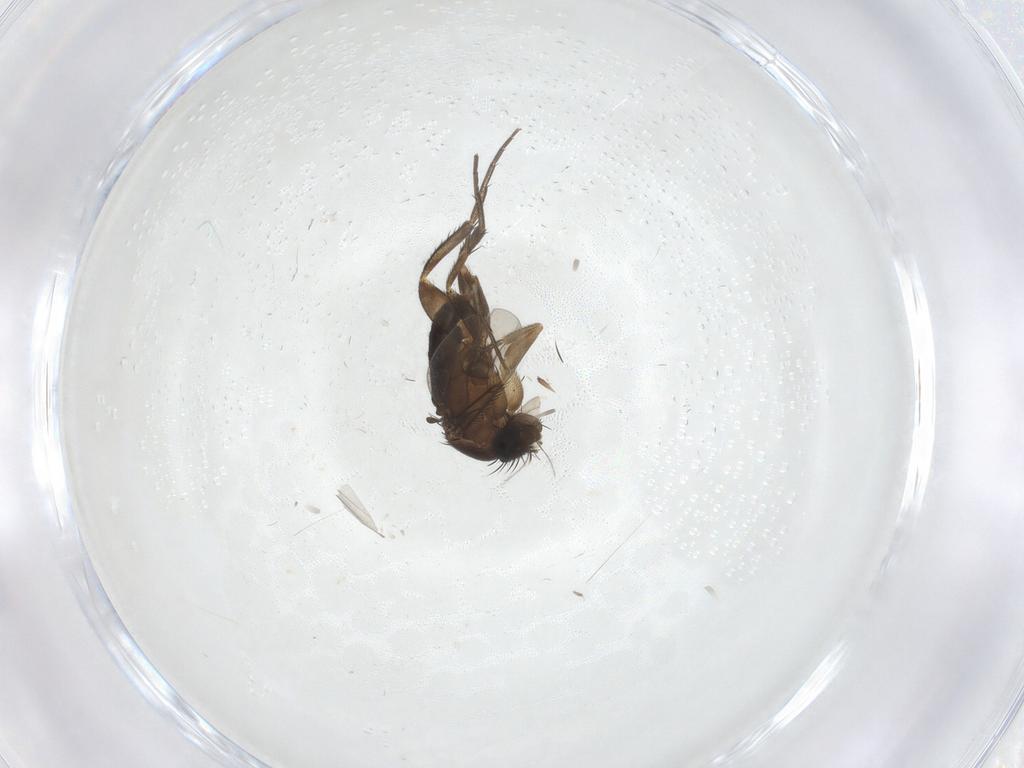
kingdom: Animalia
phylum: Arthropoda
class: Insecta
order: Diptera
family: Phoridae
